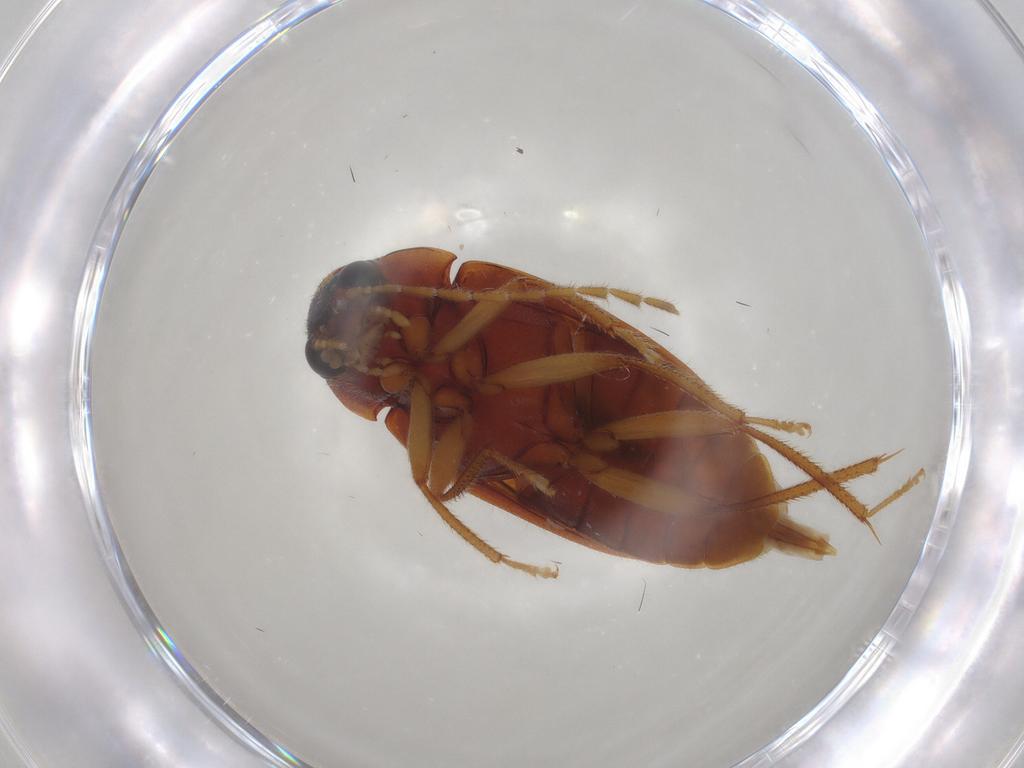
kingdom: Animalia
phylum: Arthropoda
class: Insecta
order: Coleoptera
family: Ptilodactylidae
